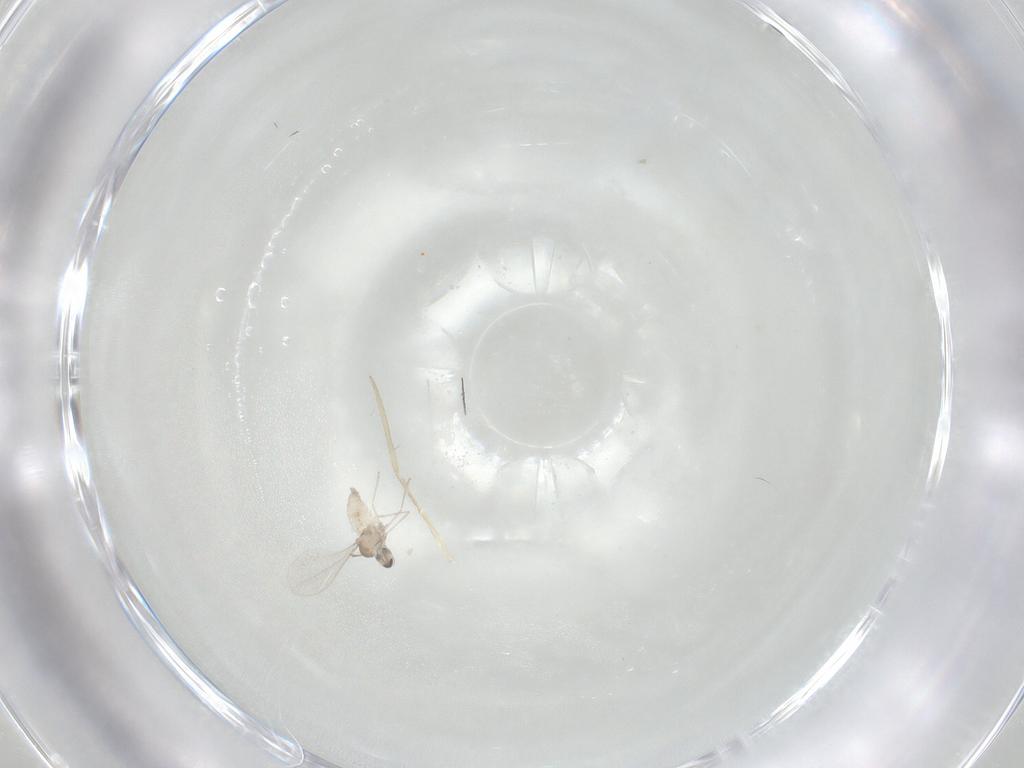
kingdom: Animalia
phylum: Arthropoda
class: Insecta
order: Diptera
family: Cecidomyiidae
